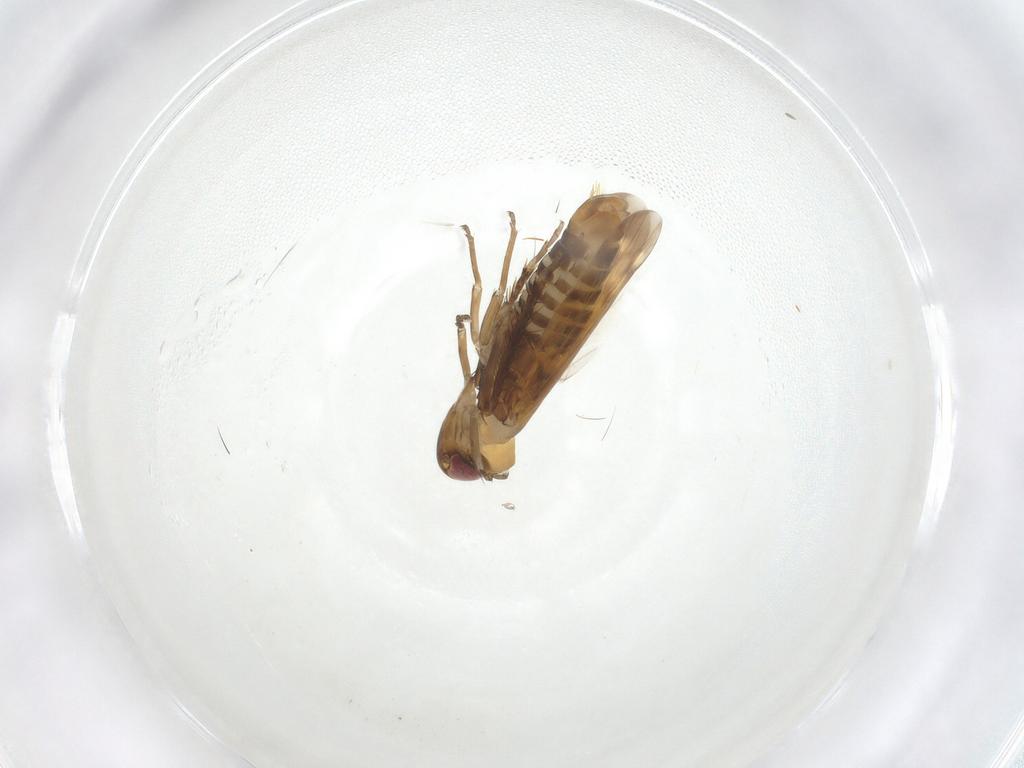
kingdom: Animalia
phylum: Arthropoda
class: Insecta
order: Hemiptera
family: Cicadellidae
